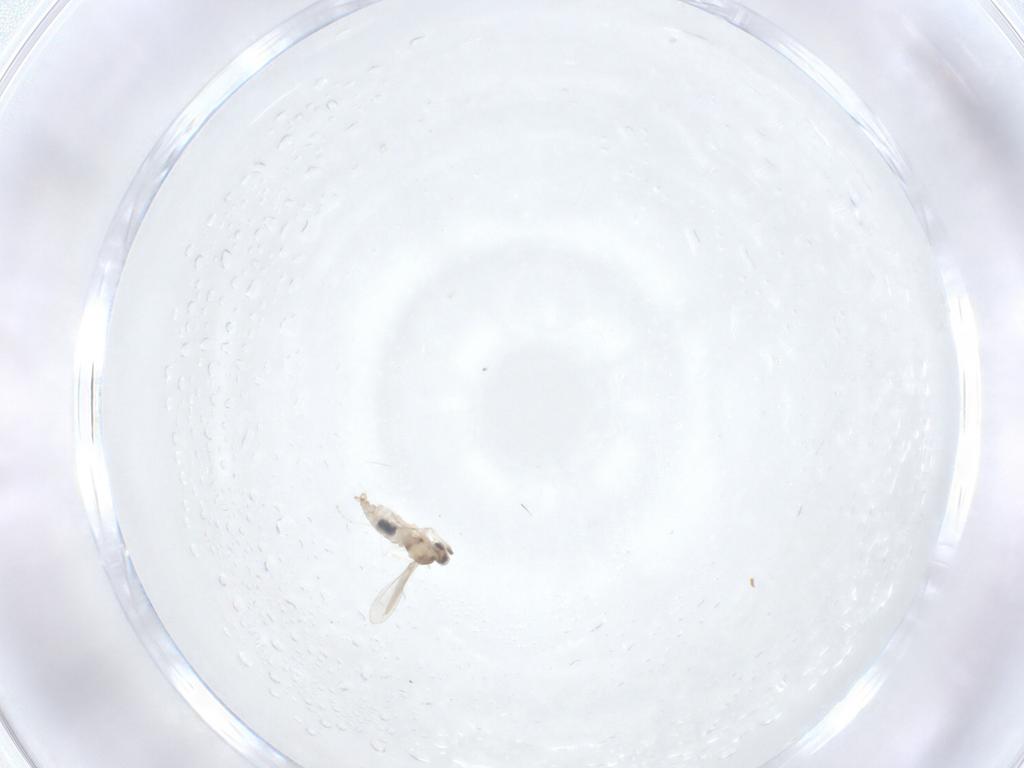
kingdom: Animalia
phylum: Arthropoda
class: Insecta
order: Diptera
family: Cecidomyiidae
